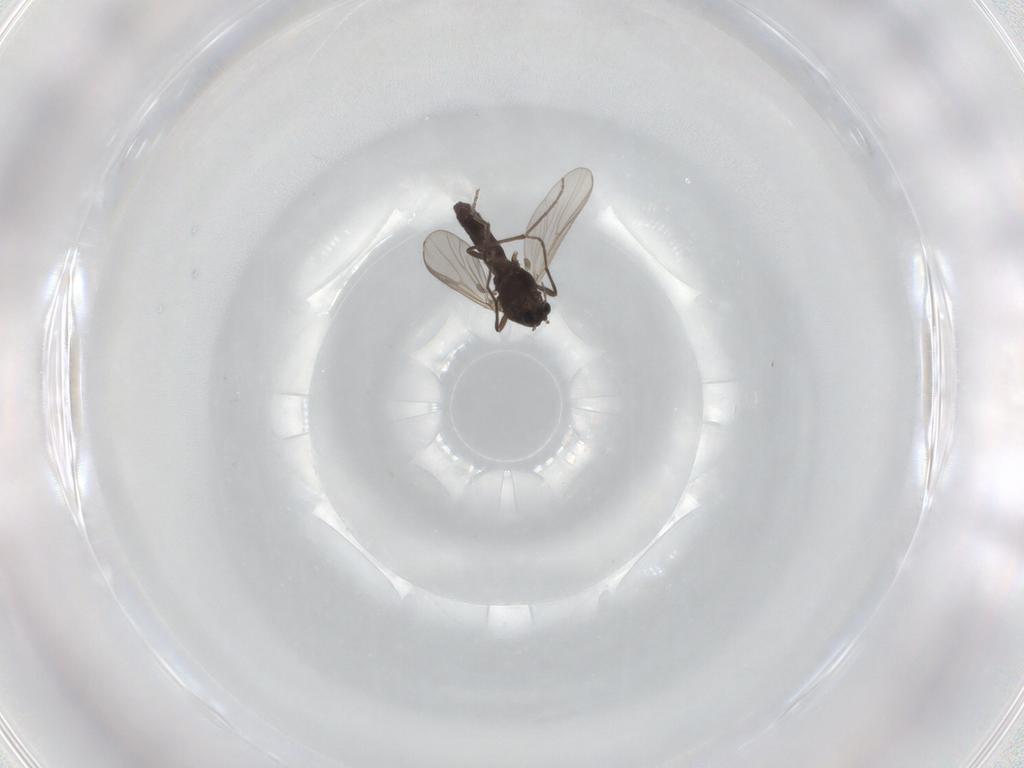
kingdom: Animalia
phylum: Arthropoda
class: Insecta
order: Diptera
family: Chironomidae
